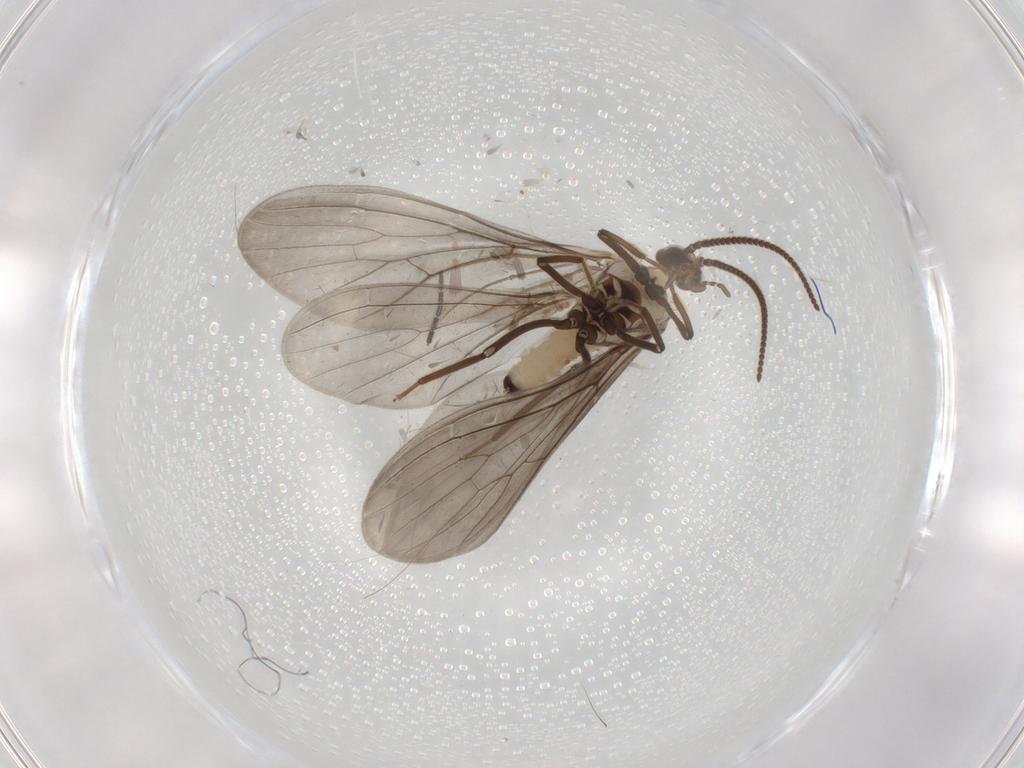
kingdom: Animalia
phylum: Arthropoda
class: Insecta
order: Neuroptera
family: Coniopterygidae
